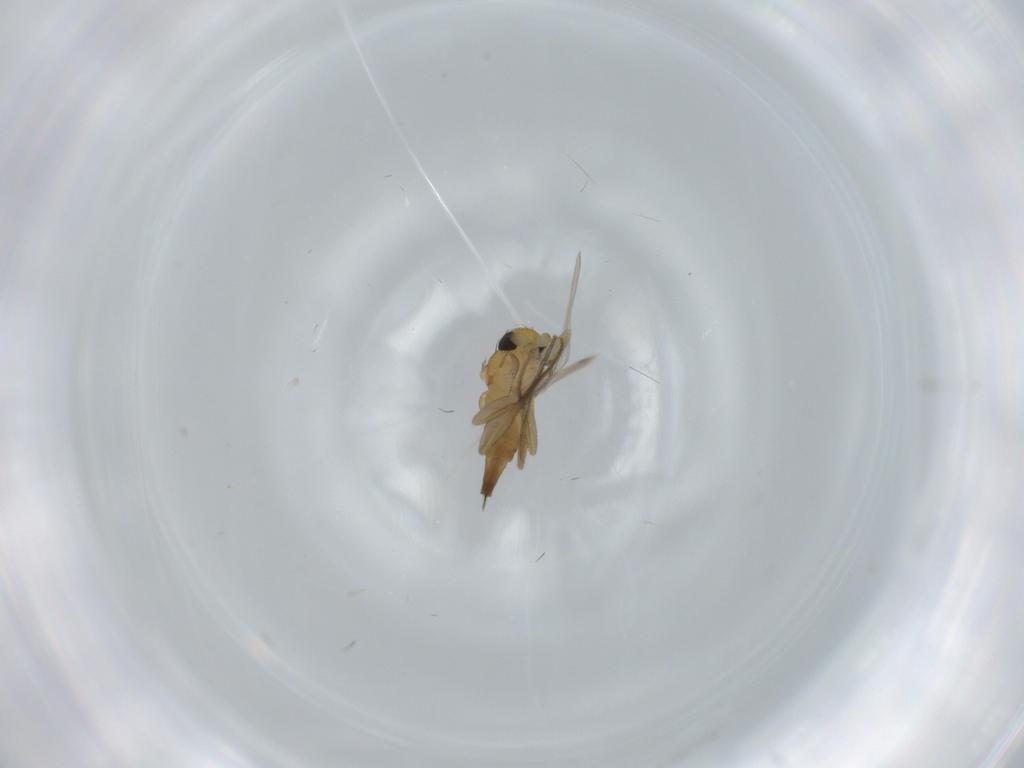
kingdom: Animalia
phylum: Arthropoda
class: Insecta
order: Diptera
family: Phoridae
